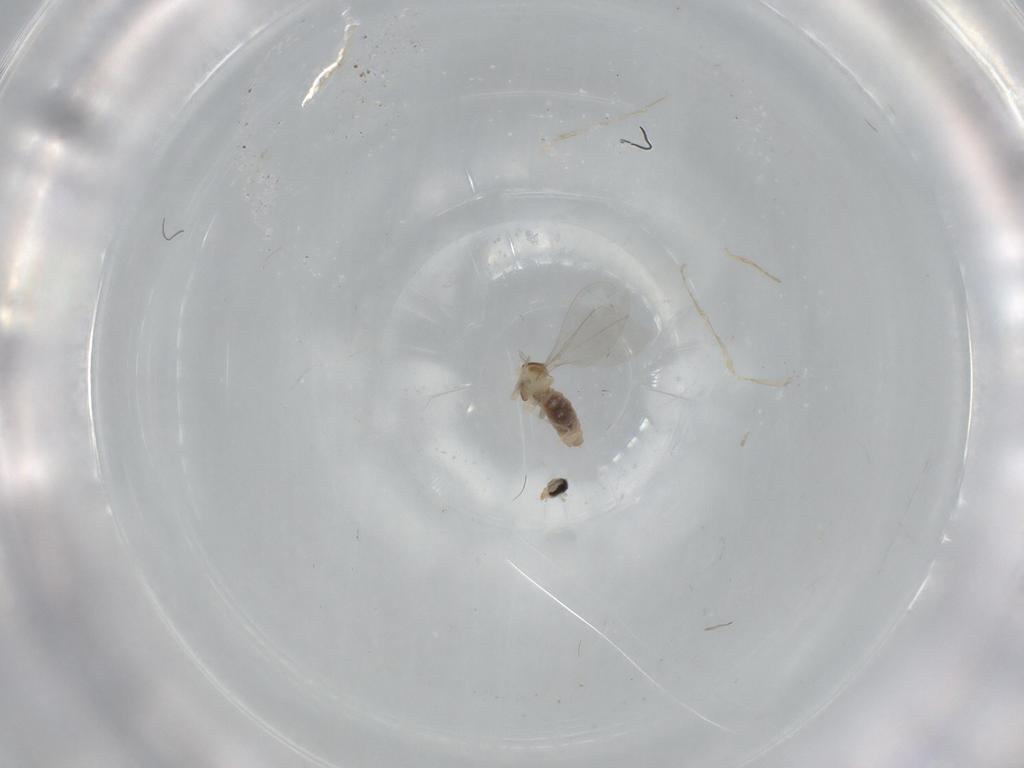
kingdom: Animalia
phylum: Arthropoda
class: Insecta
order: Diptera
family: Cecidomyiidae
